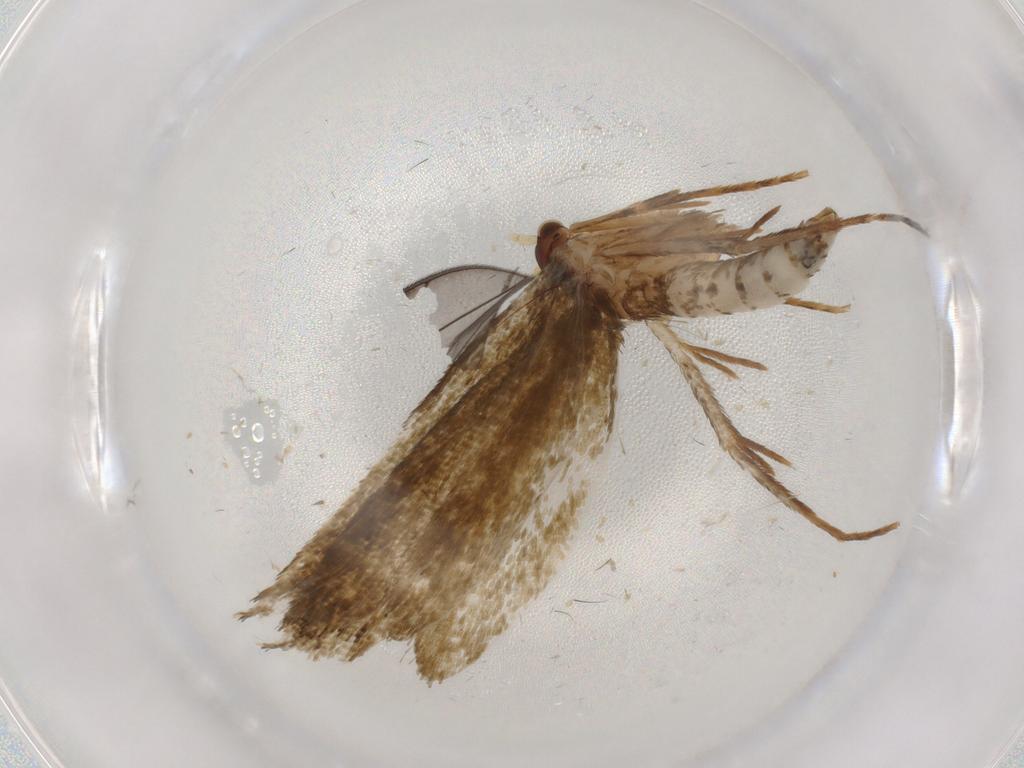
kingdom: Animalia
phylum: Arthropoda
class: Insecta
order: Lepidoptera
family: Tineidae
